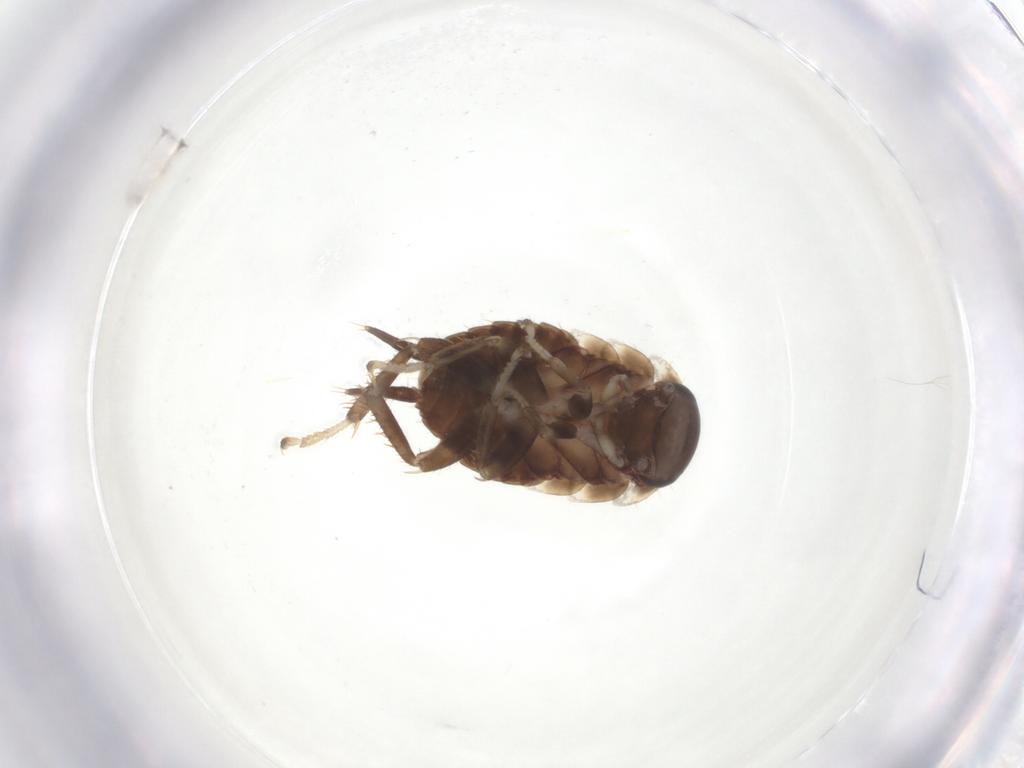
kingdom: Animalia
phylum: Arthropoda
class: Insecta
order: Blattodea
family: Blaberidae
